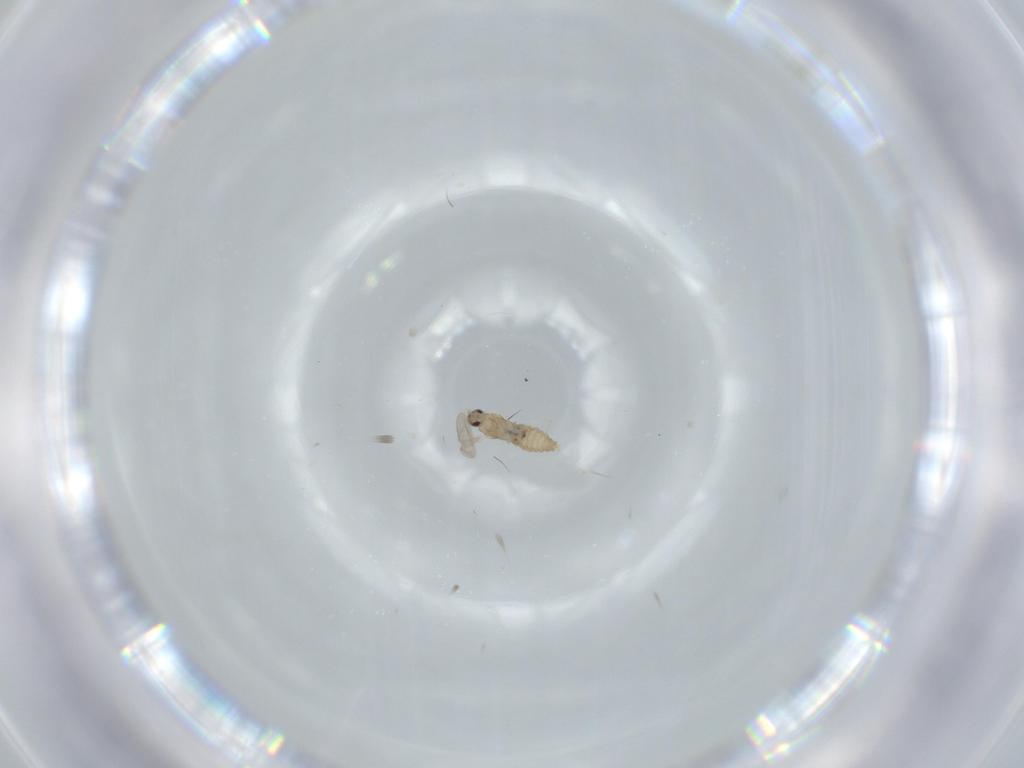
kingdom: Animalia
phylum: Arthropoda
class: Insecta
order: Diptera
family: Cecidomyiidae
